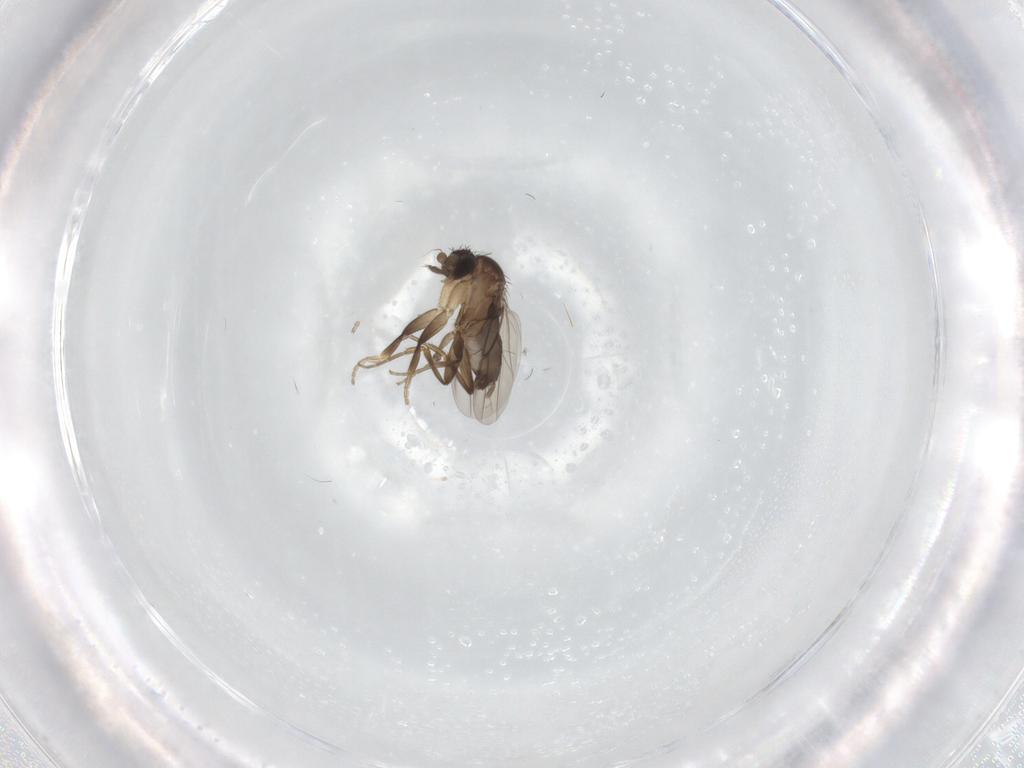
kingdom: Animalia
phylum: Arthropoda
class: Insecta
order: Diptera
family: Phoridae
